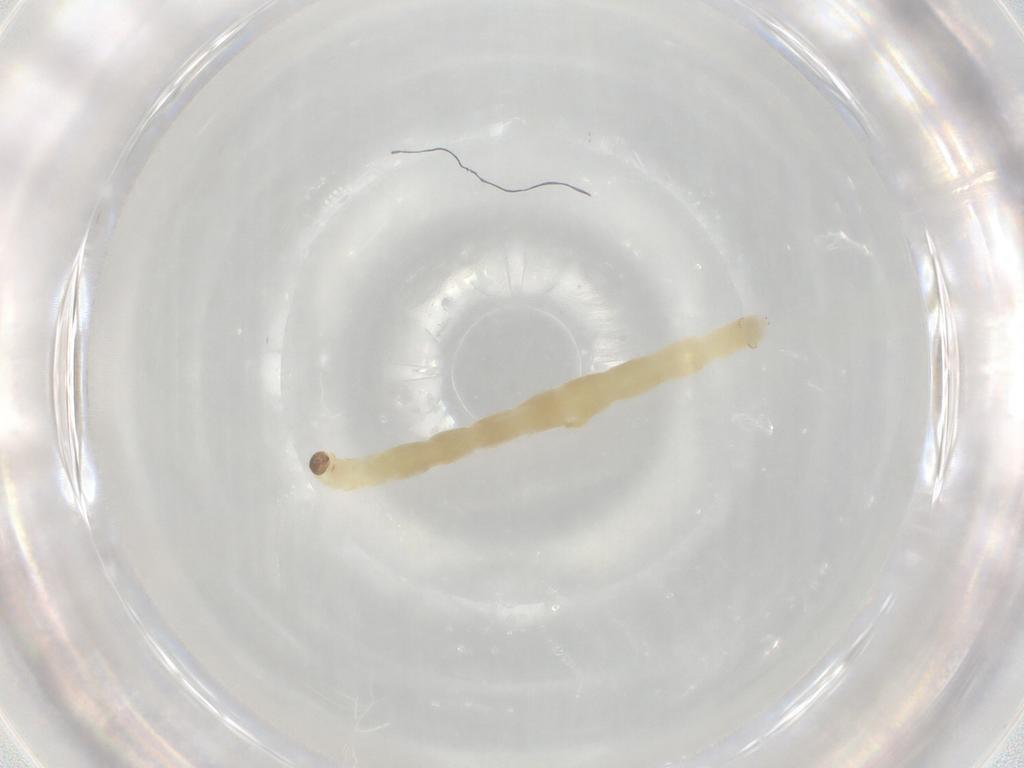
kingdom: Animalia
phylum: Arthropoda
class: Insecta
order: Diptera
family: Chironomidae
